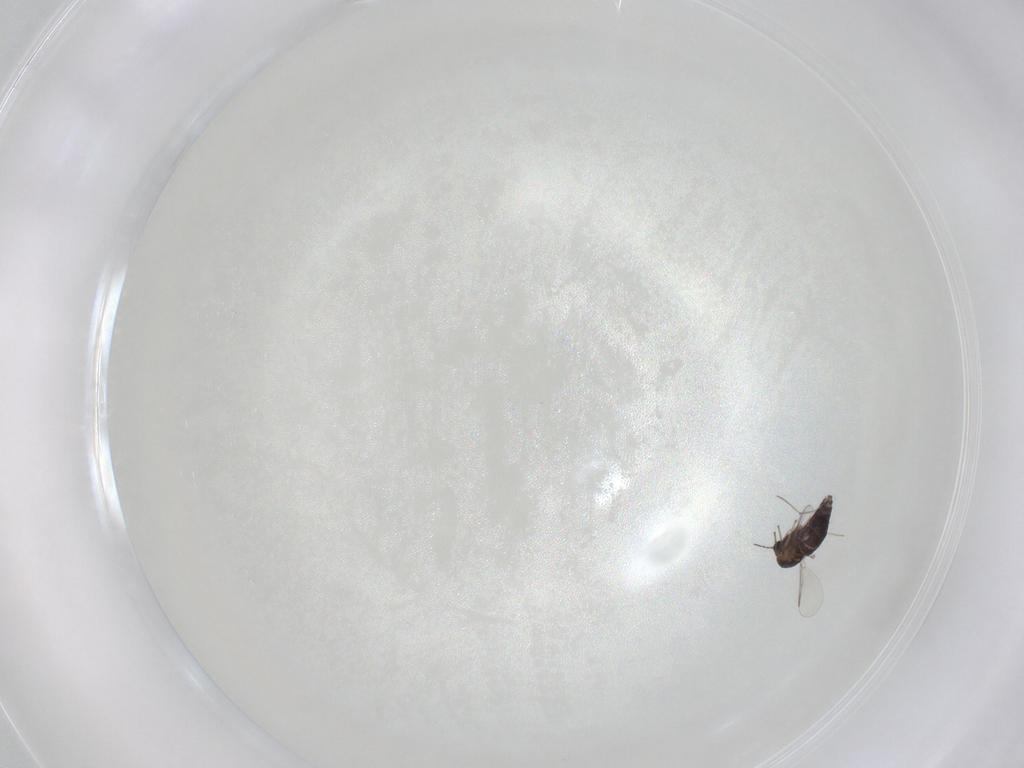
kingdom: Animalia
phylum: Arthropoda
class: Insecta
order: Diptera
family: Chironomidae
